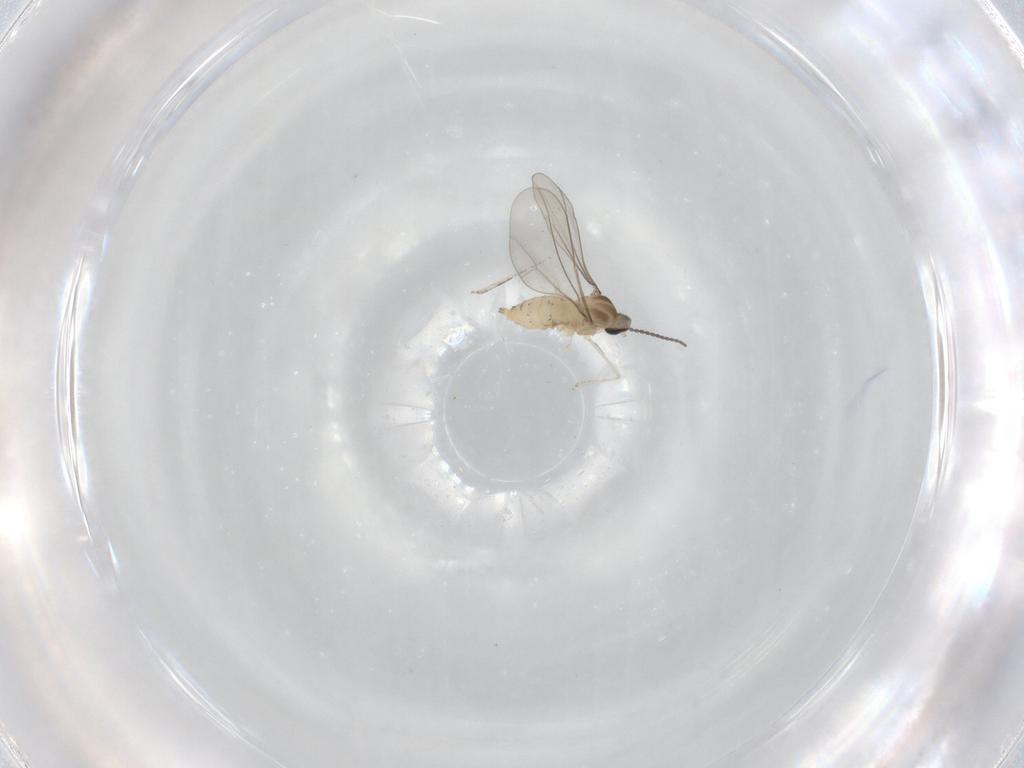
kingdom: Animalia
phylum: Arthropoda
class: Insecta
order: Diptera
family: Cecidomyiidae
